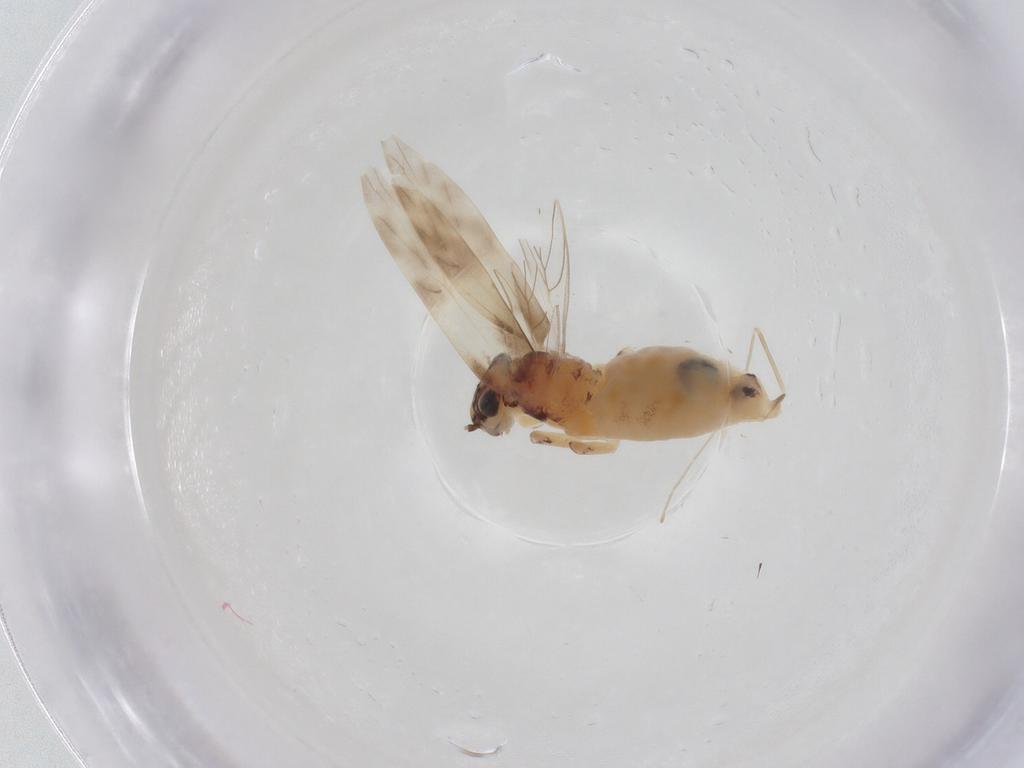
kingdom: Animalia
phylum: Arthropoda
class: Insecta
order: Psocodea
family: Lepidopsocidae
